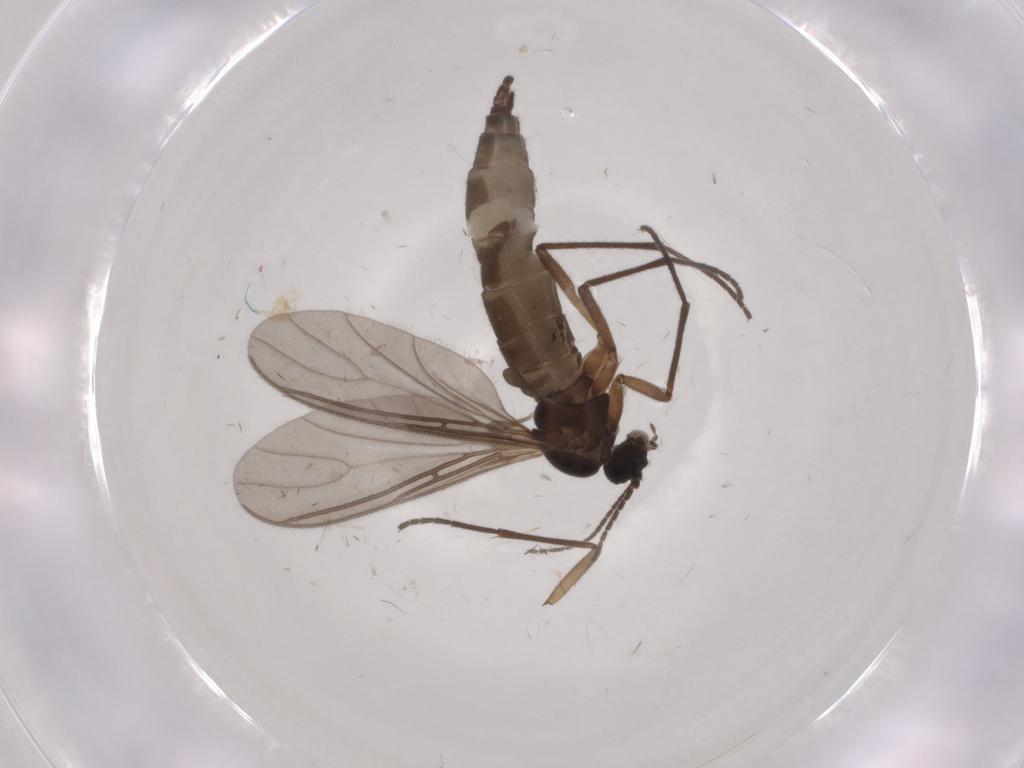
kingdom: Animalia
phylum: Arthropoda
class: Insecta
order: Diptera
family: Sciaridae
